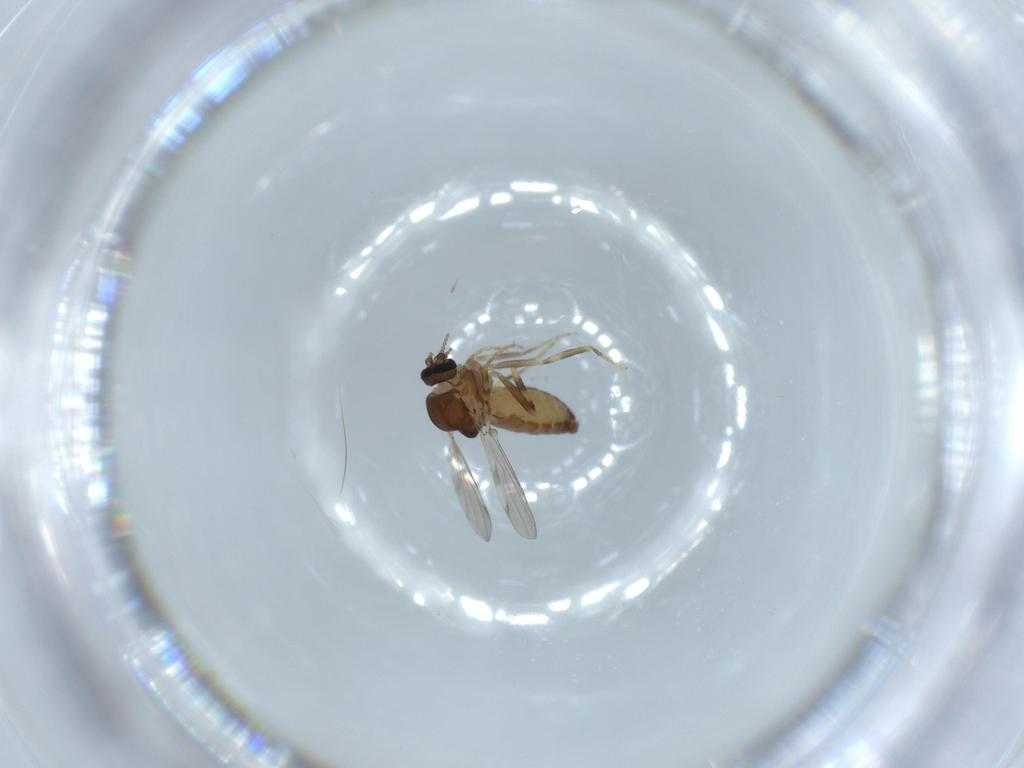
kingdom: Animalia
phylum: Arthropoda
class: Insecta
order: Diptera
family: Ceratopogonidae
